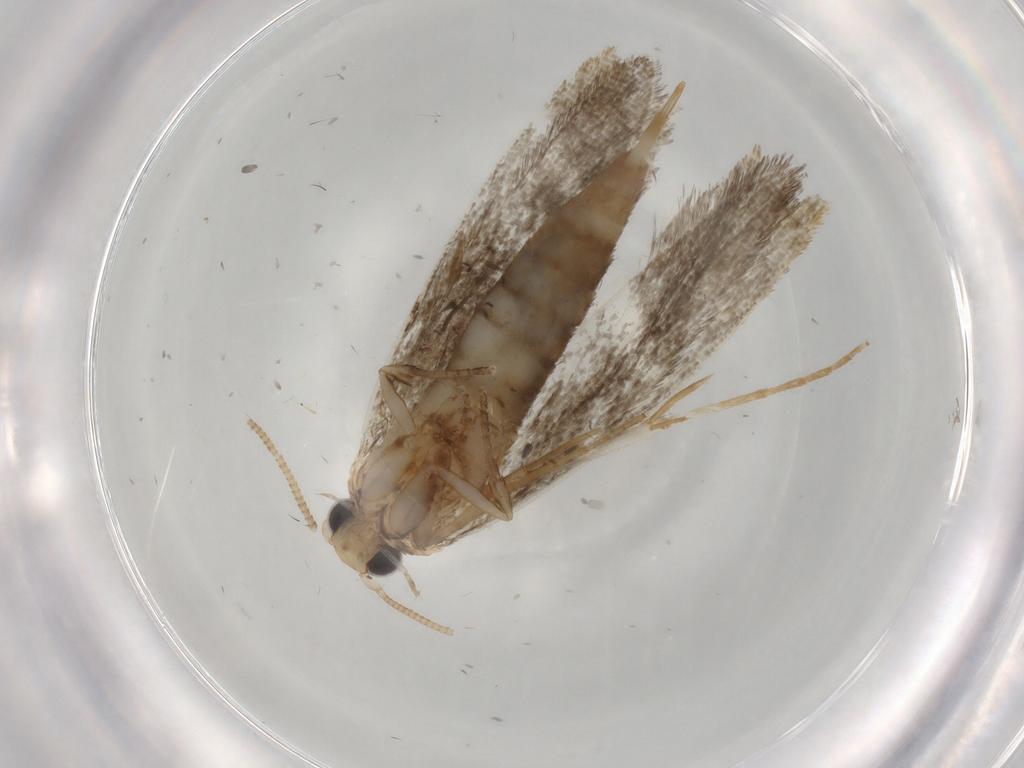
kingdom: Animalia
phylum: Arthropoda
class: Insecta
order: Lepidoptera
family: Tineidae
